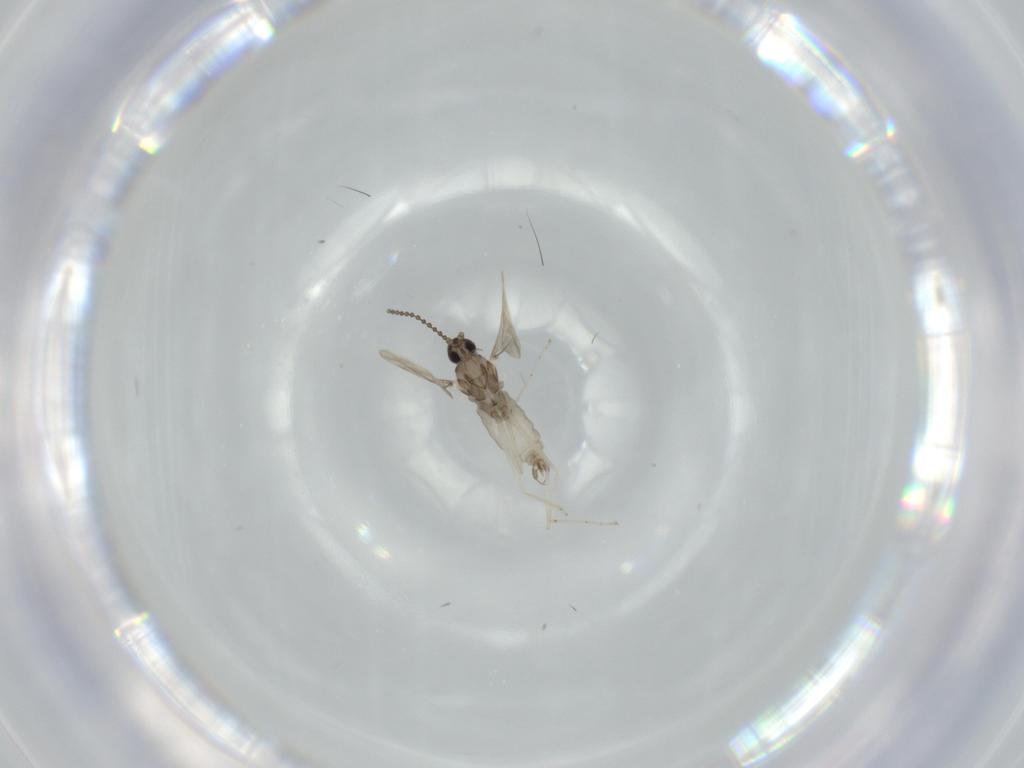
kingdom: Animalia
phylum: Arthropoda
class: Insecta
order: Diptera
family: Cecidomyiidae
